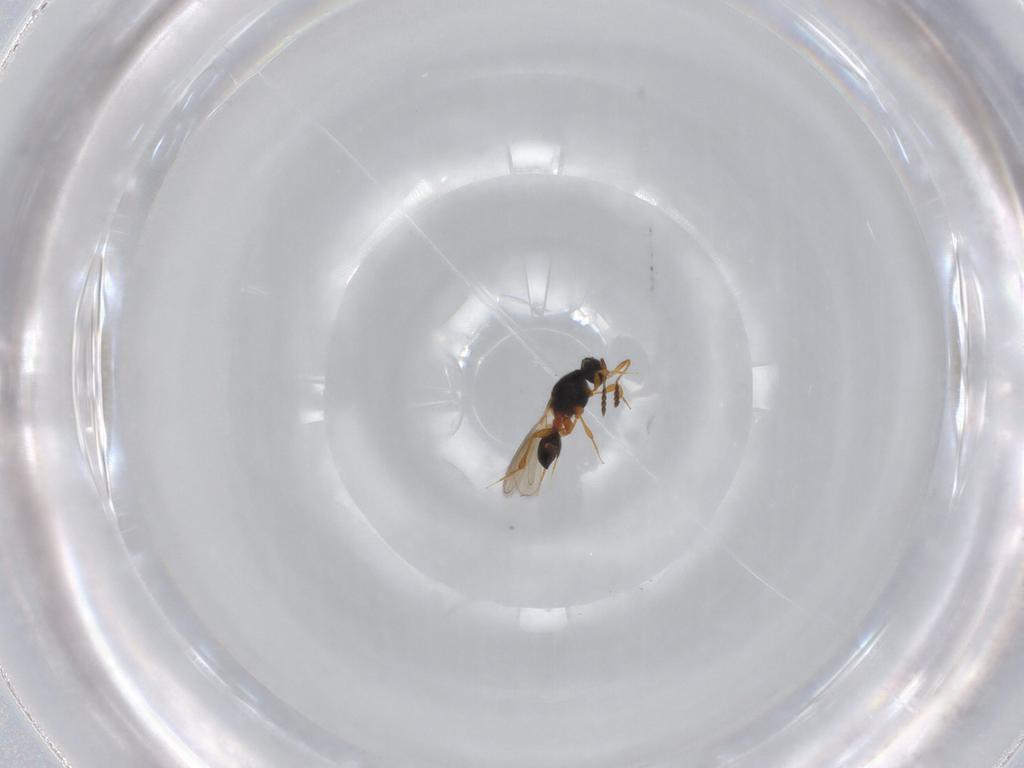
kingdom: Animalia
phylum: Arthropoda
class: Insecta
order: Hymenoptera
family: Platygastridae
